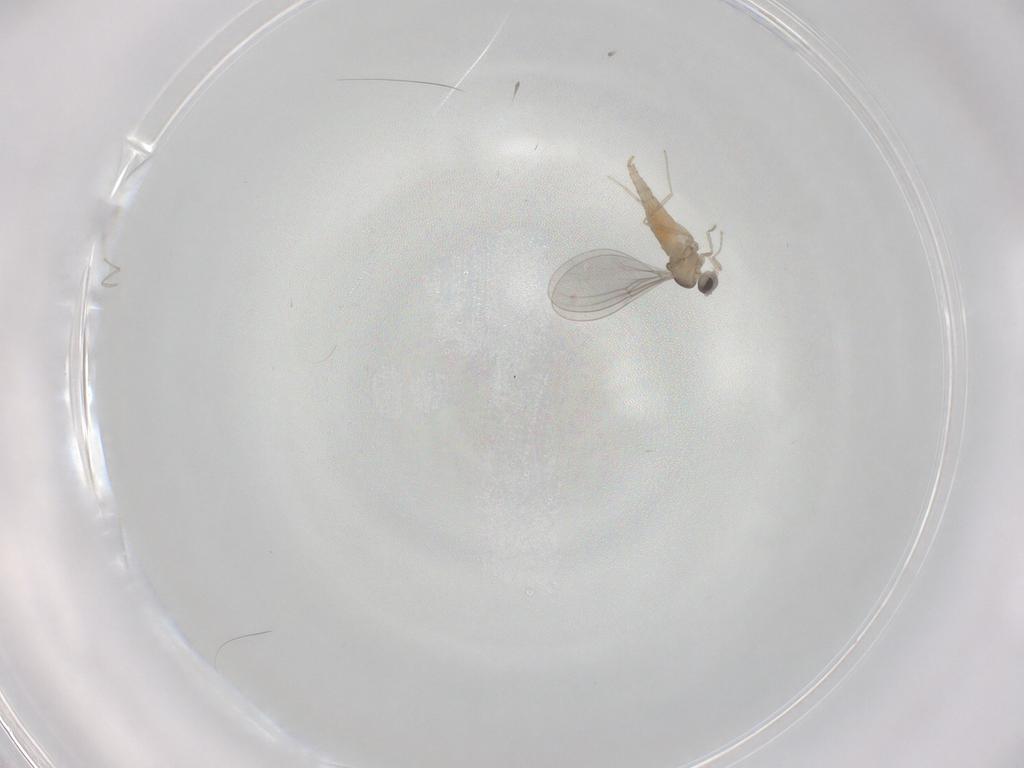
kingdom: Animalia
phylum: Arthropoda
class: Insecta
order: Diptera
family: Cecidomyiidae
